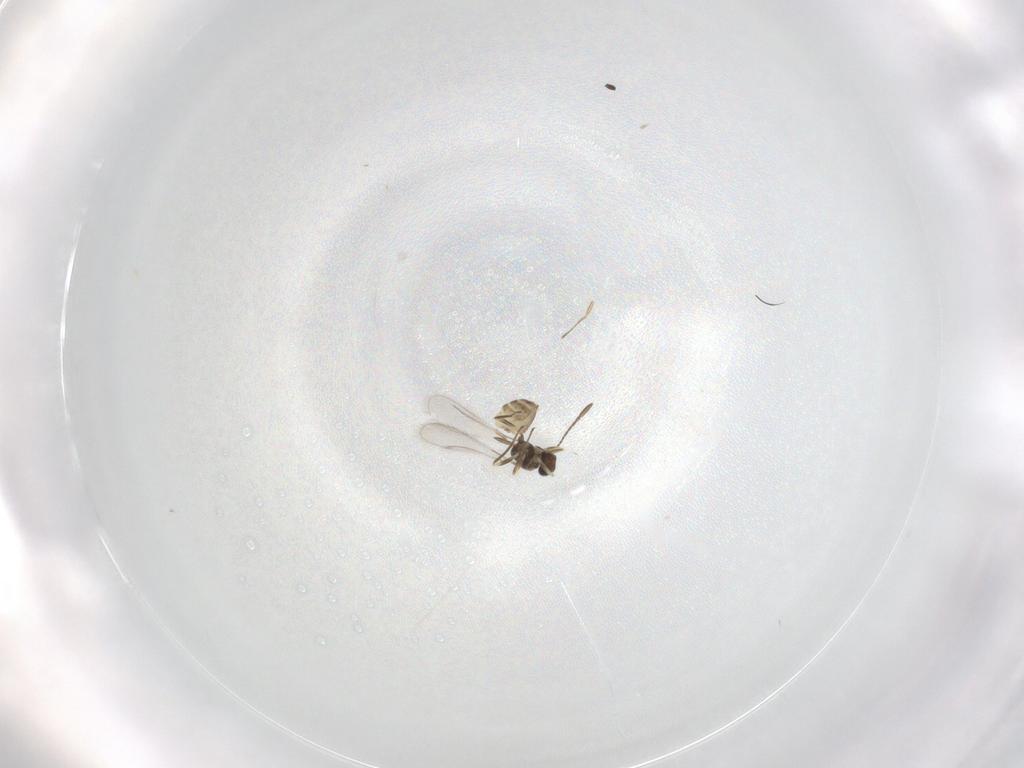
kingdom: Animalia
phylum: Arthropoda
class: Insecta
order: Hymenoptera
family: Mymaridae
